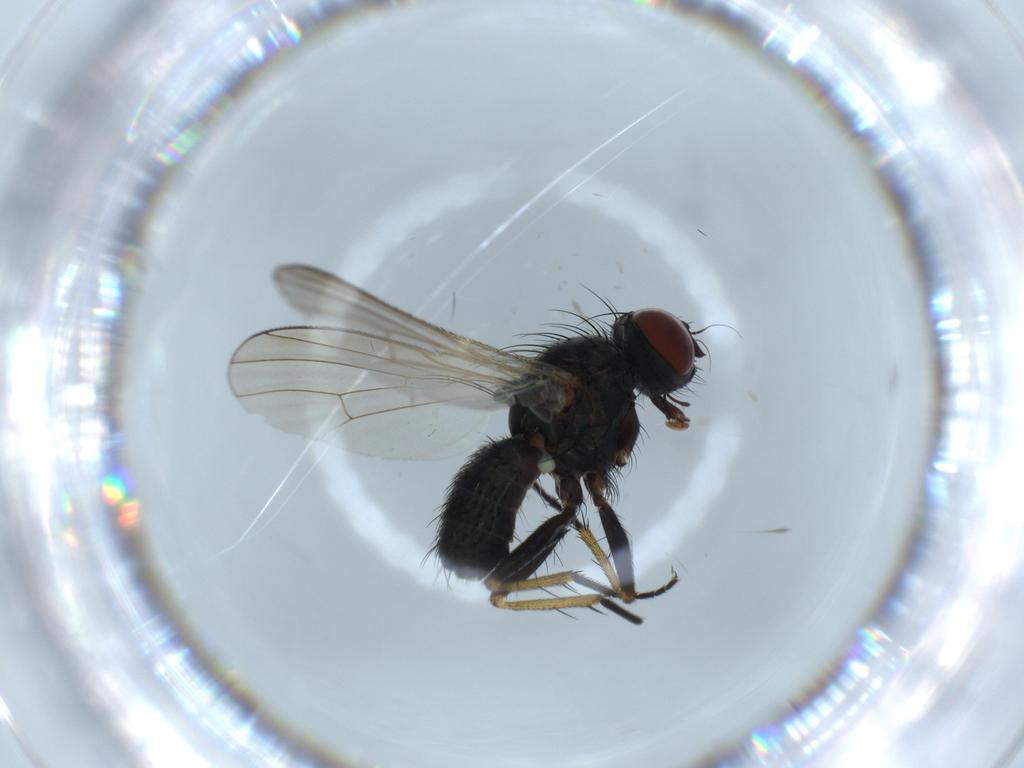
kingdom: Animalia
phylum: Arthropoda
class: Insecta
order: Diptera
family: Muscidae
